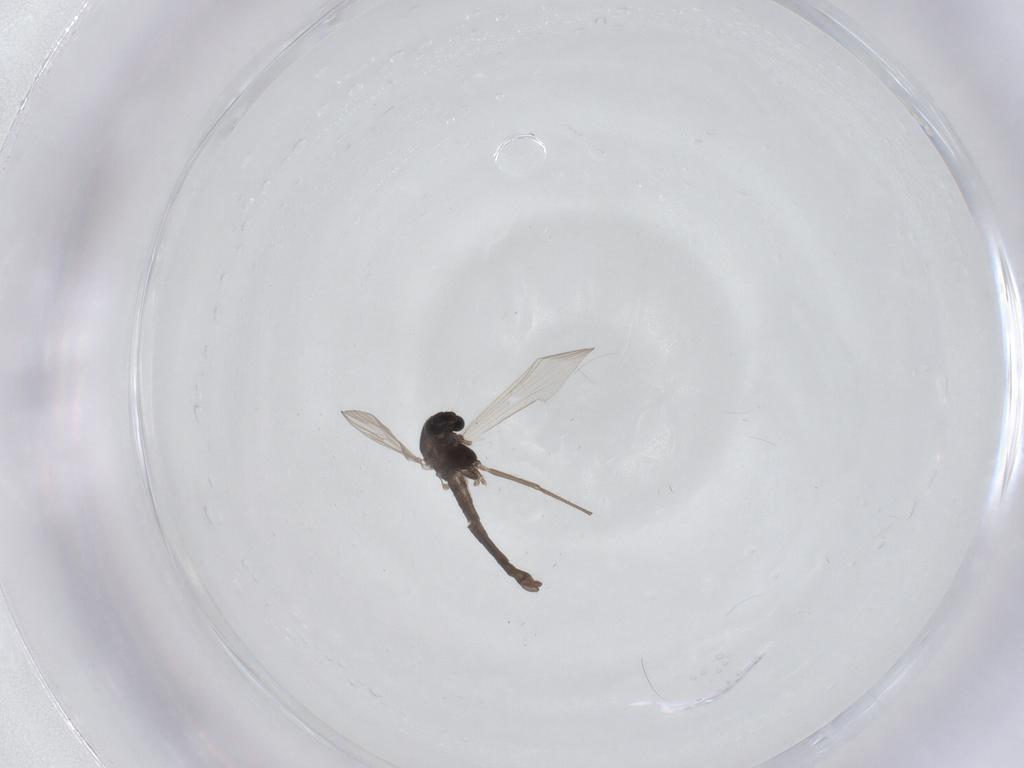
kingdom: Animalia
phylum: Arthropoda
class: Insecta
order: Diptera
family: Chironomidae
